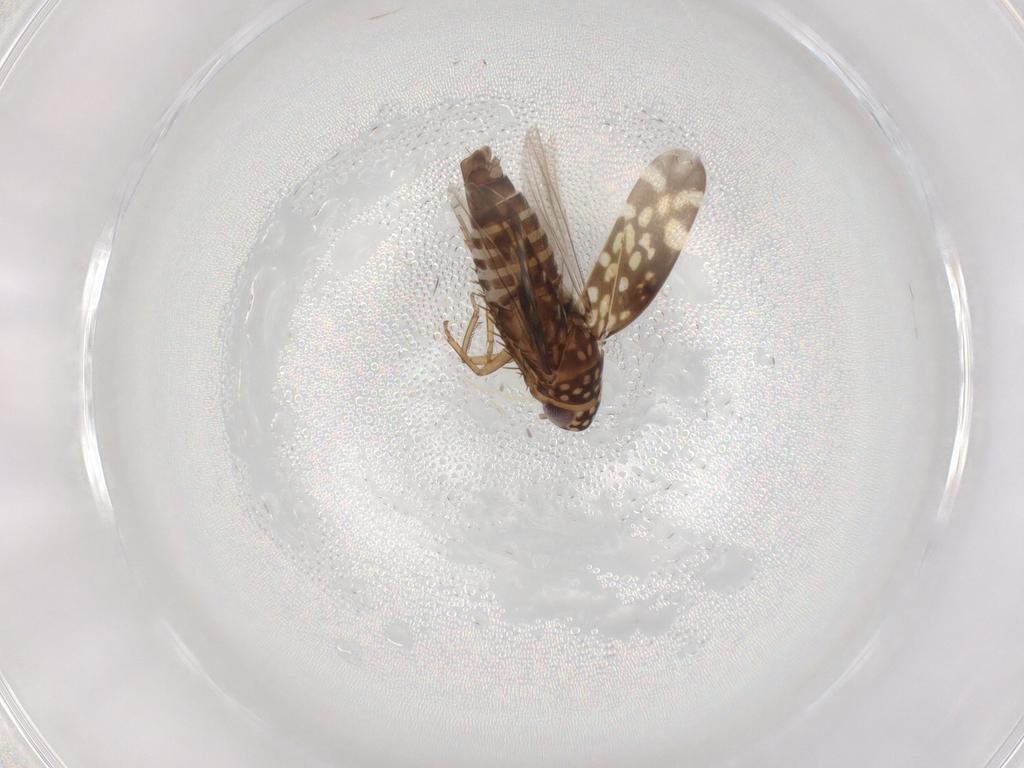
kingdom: Animalia
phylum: Arthropoda
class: Insecta
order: Hemiptera
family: Cicadellidae
